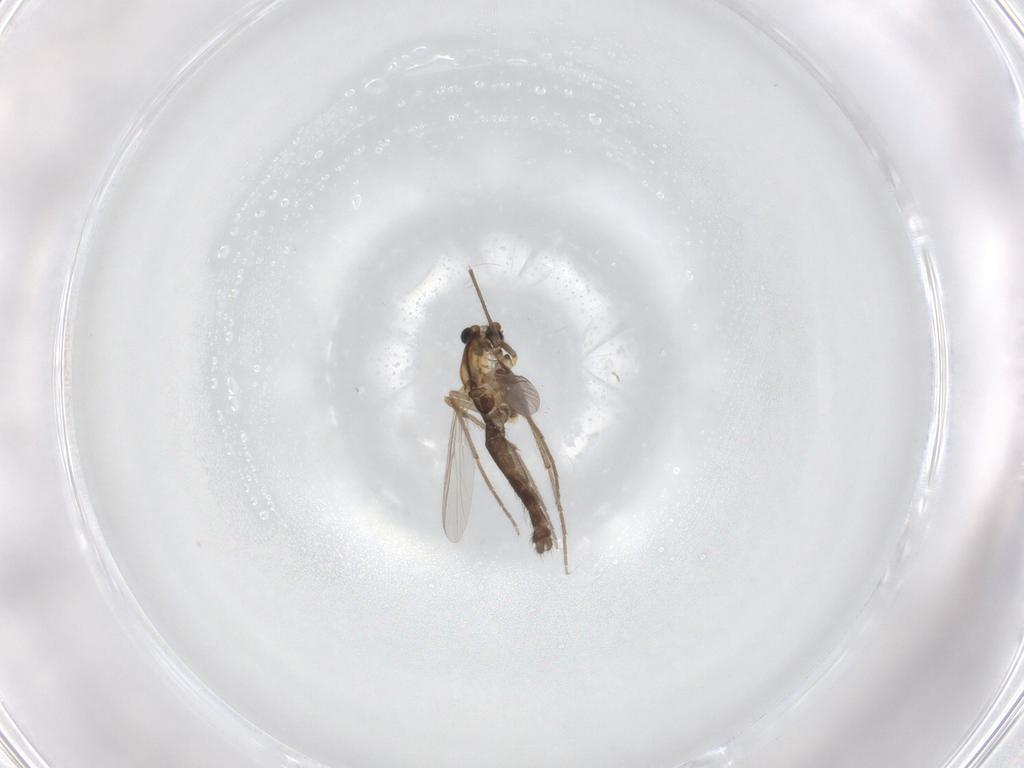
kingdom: Animalia
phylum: Arthropoda
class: Insecta
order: Diptera
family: Chironomidae
